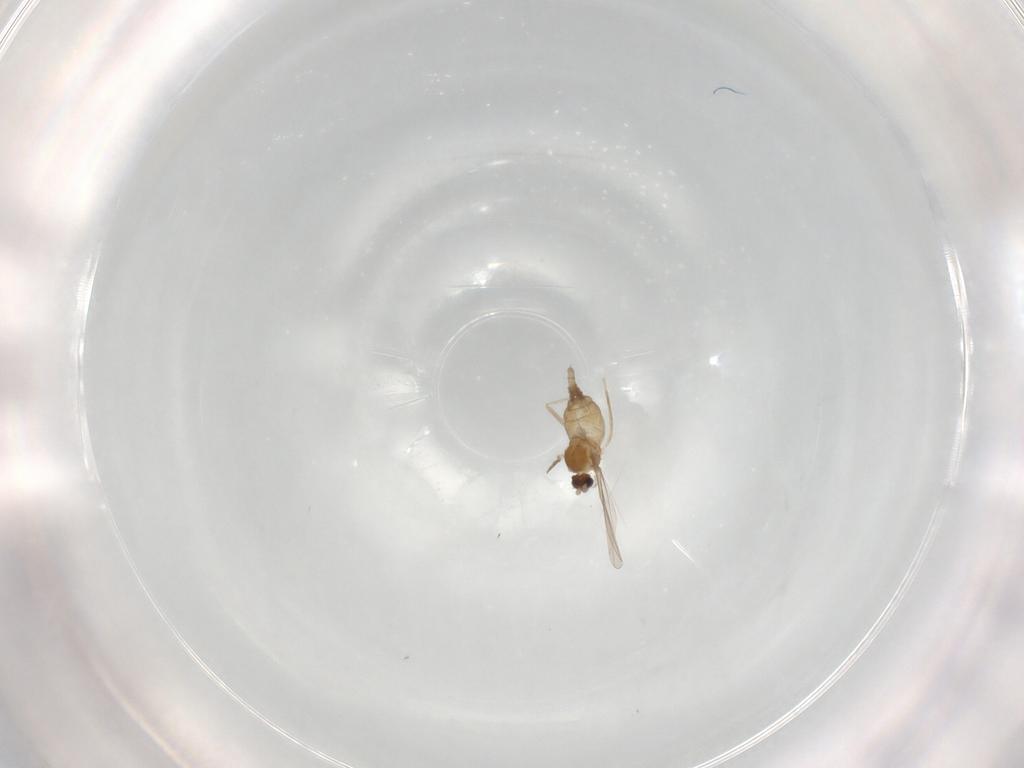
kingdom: Animalia
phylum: Arthropoda
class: Insecta
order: Diptera
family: Cecidomyiidae
